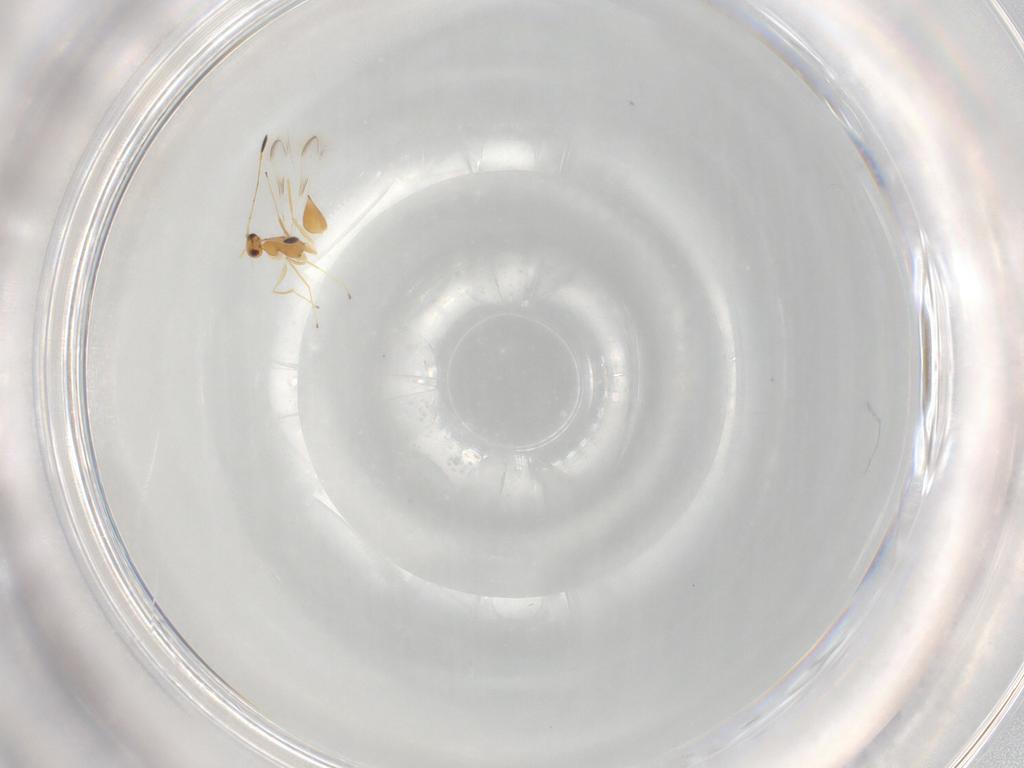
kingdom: Animalia
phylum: Arthropoda
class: Insecta
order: Hymenoptera
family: Mymaridae
